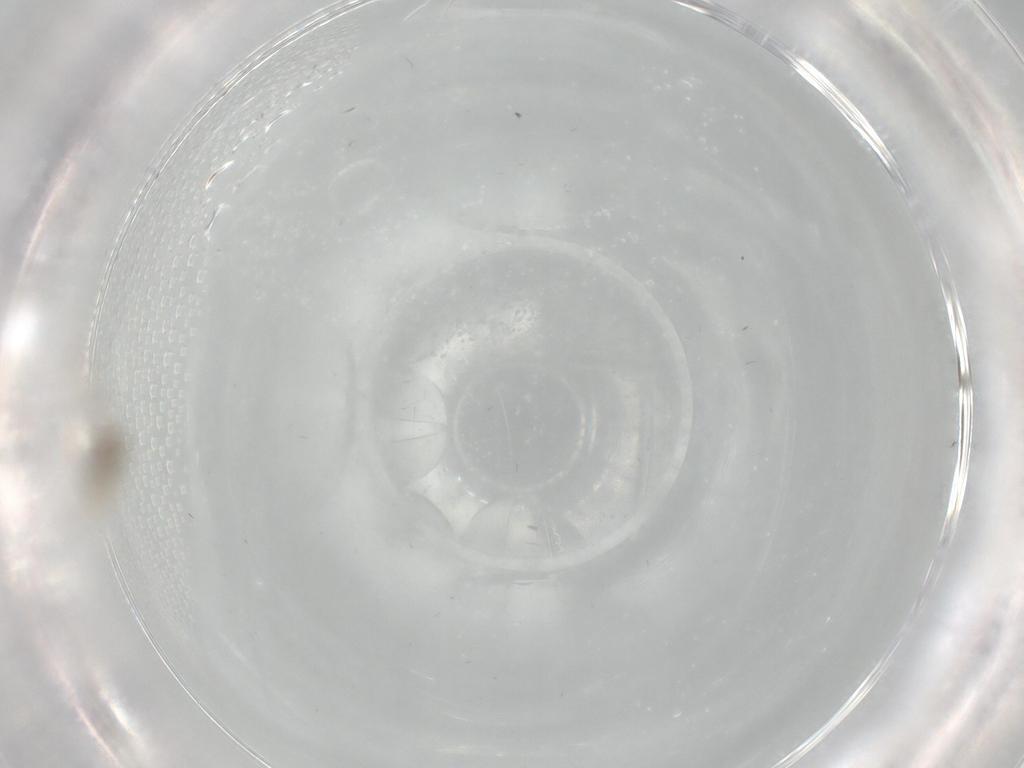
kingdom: Animalia
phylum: Arthropoda
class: Insecta
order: Diptera
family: Cecidomyiidae
